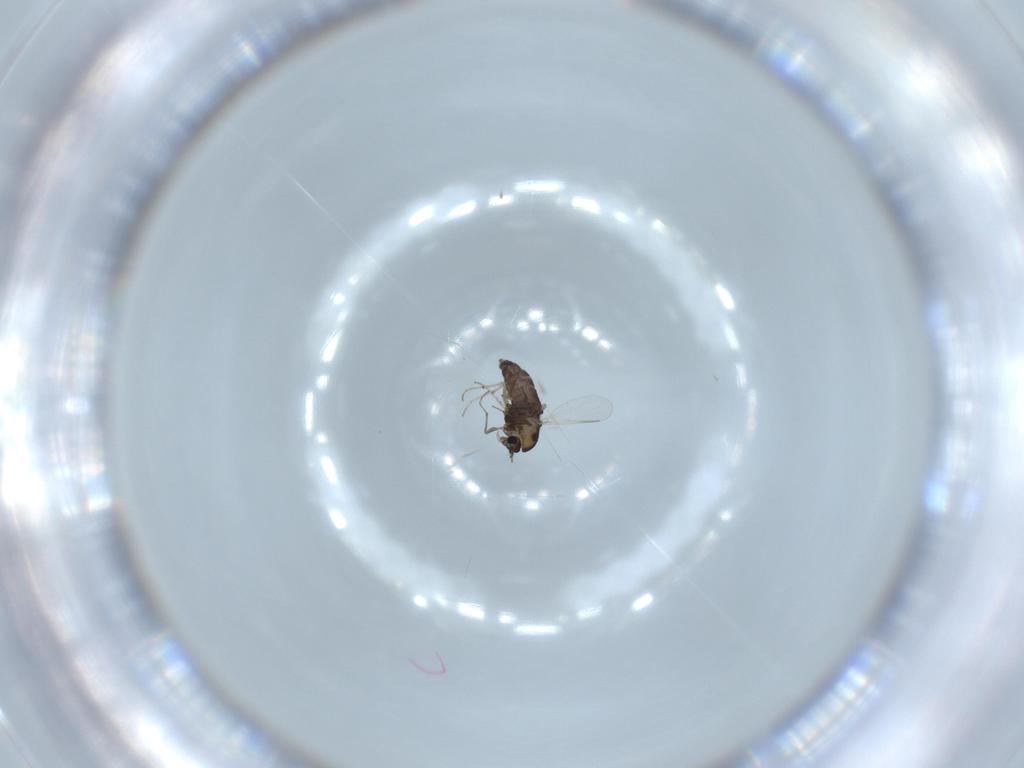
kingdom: Animalia
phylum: Arthropoda
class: Insecta
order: Diptera
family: Chironomidae
